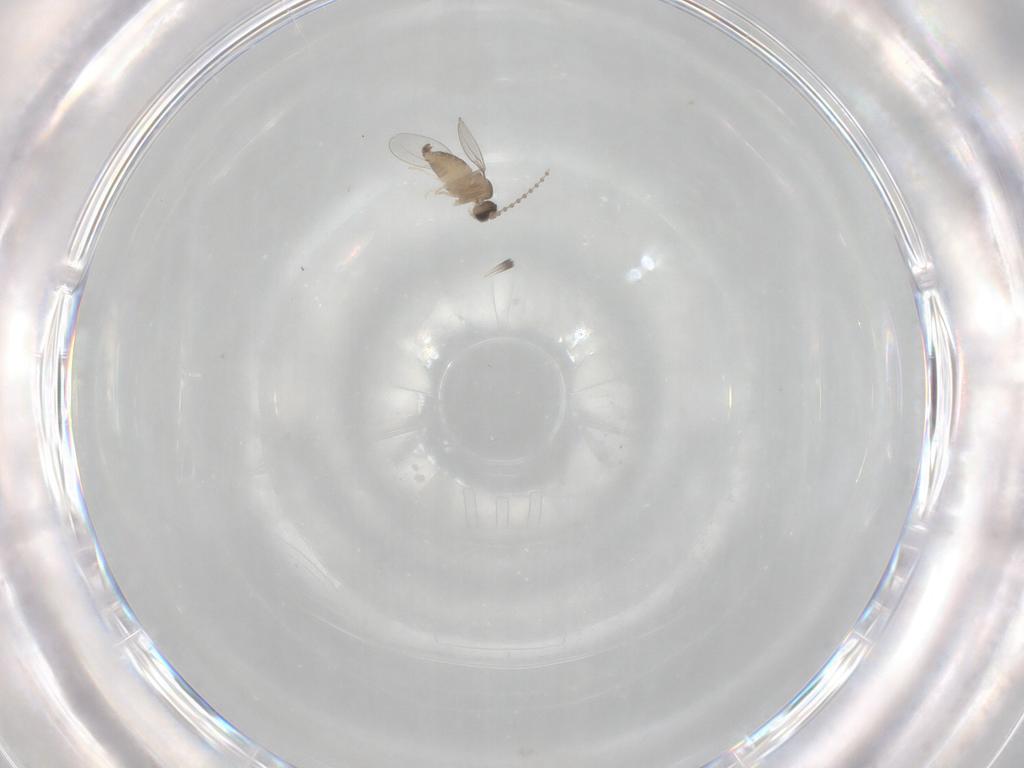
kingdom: Animalia
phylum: Arthropoda
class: Insecta
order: Diptera
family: Cecidomyiidae
